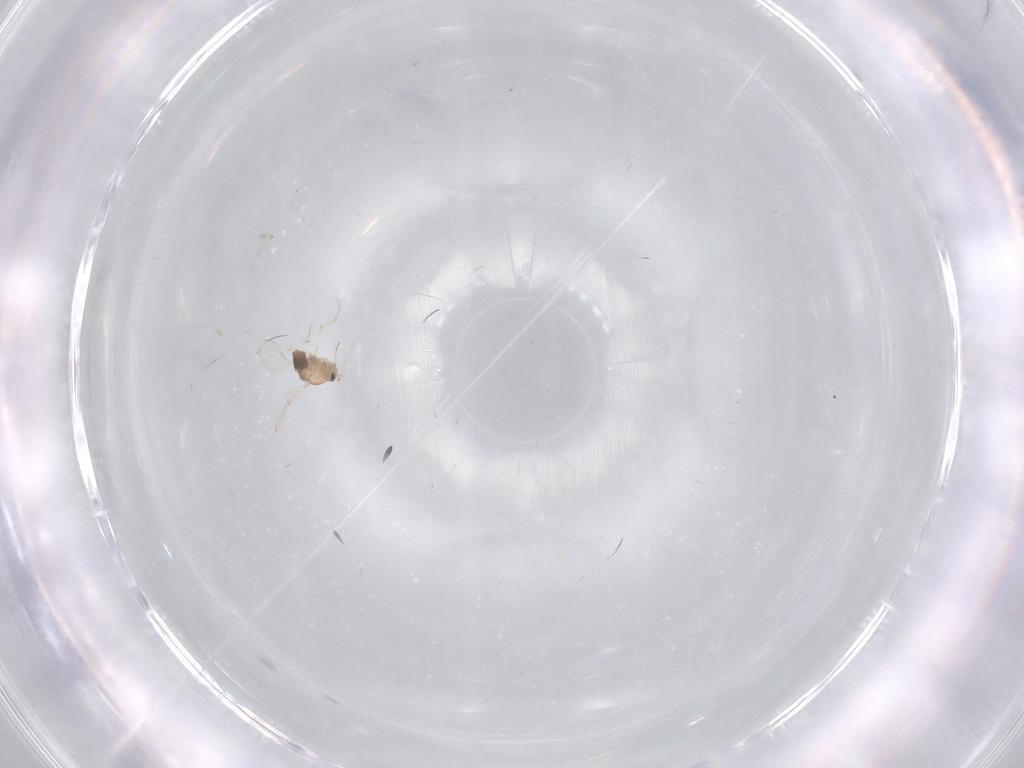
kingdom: Animalia
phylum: Arthropoda
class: Insecta
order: Diptera
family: Chironomidae
